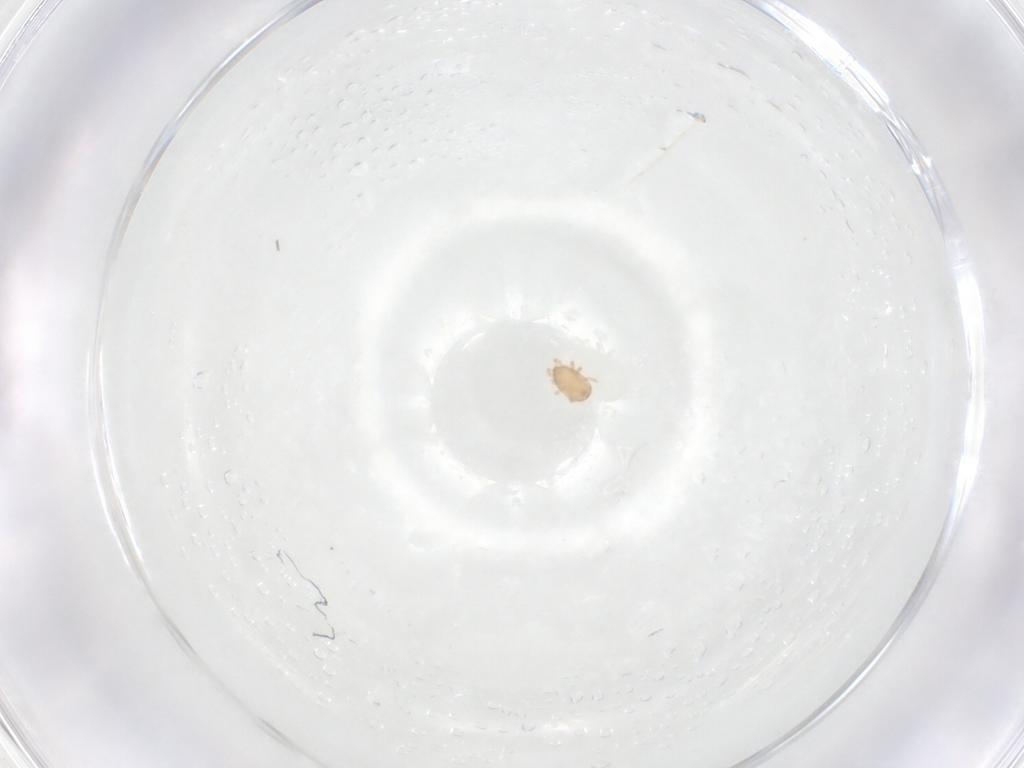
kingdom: Animalia
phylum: Arthropoda
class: Arachnida
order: Mesostigmata
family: Ascidae
